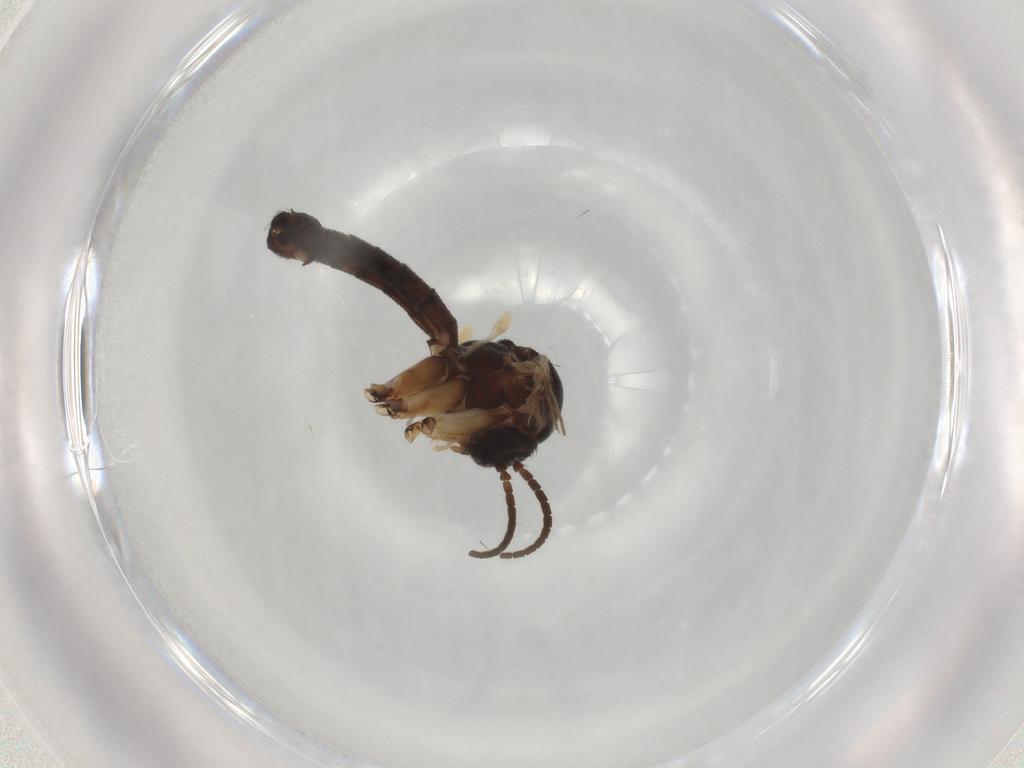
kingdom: Animalia
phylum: Arthropoda
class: Insecta
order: Diptera
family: Mycetophilidae
